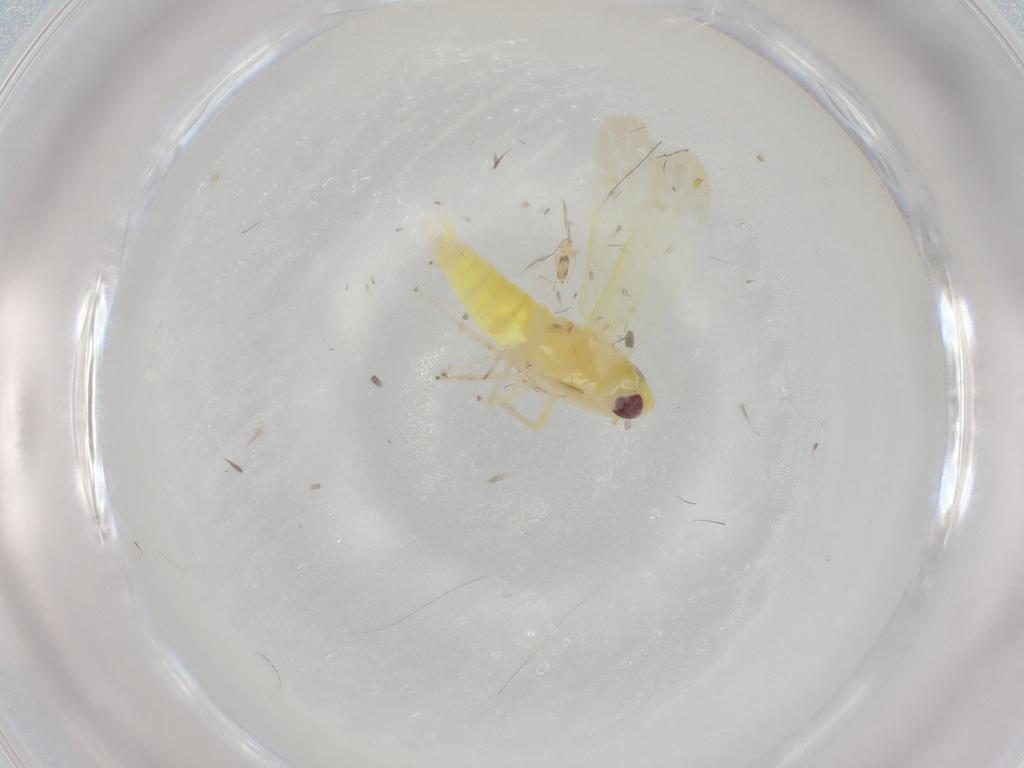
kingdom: Animalia
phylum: Arthropoda
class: Insecta
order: Hemiptera
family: Cicadellidae
